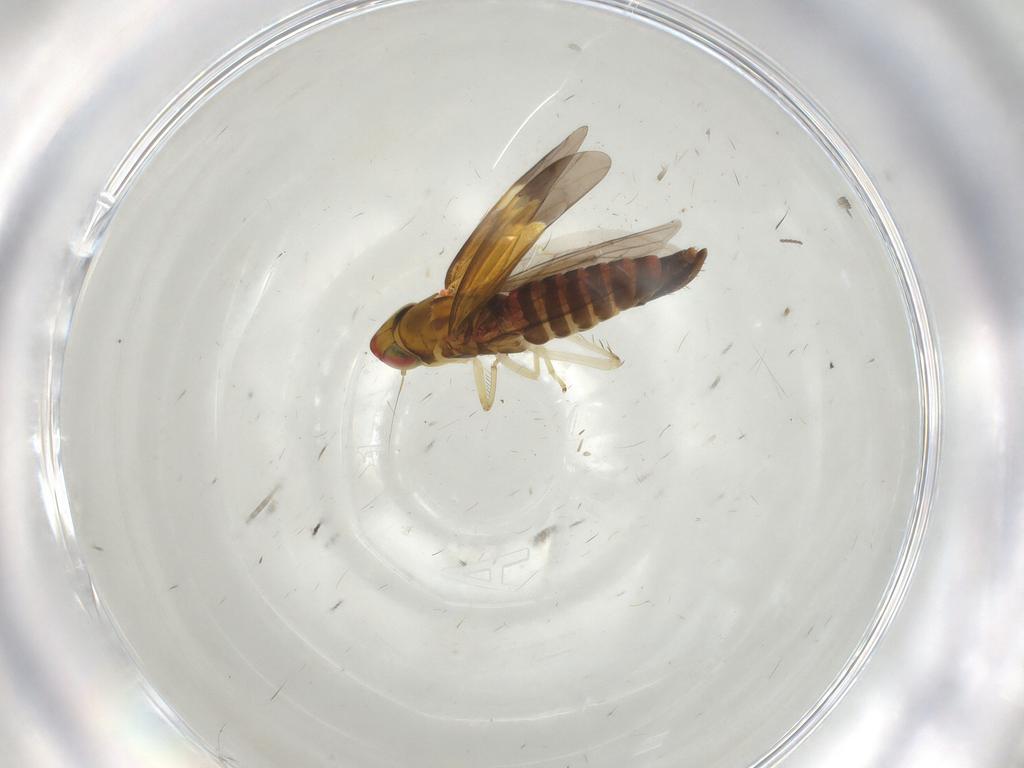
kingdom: Animalia
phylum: Arthropoda
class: Insecta
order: Hemiptera
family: Cicadellidae
